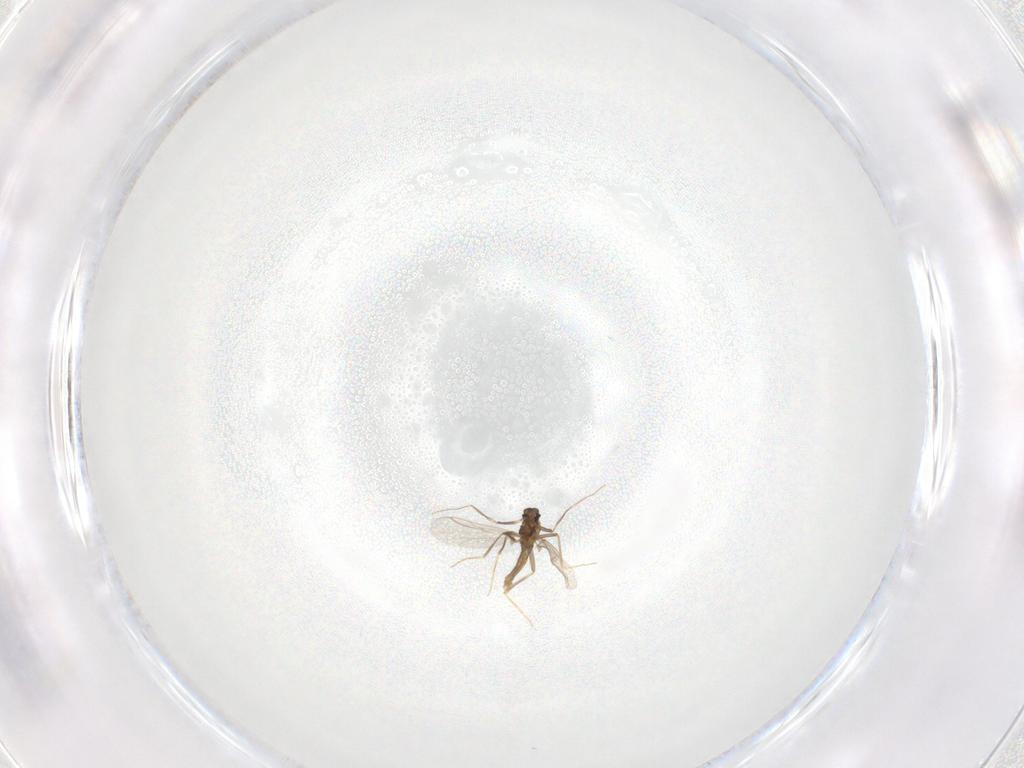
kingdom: Animalia
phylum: Arthropoda
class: Insecta
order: Diptera
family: Chironomidae
